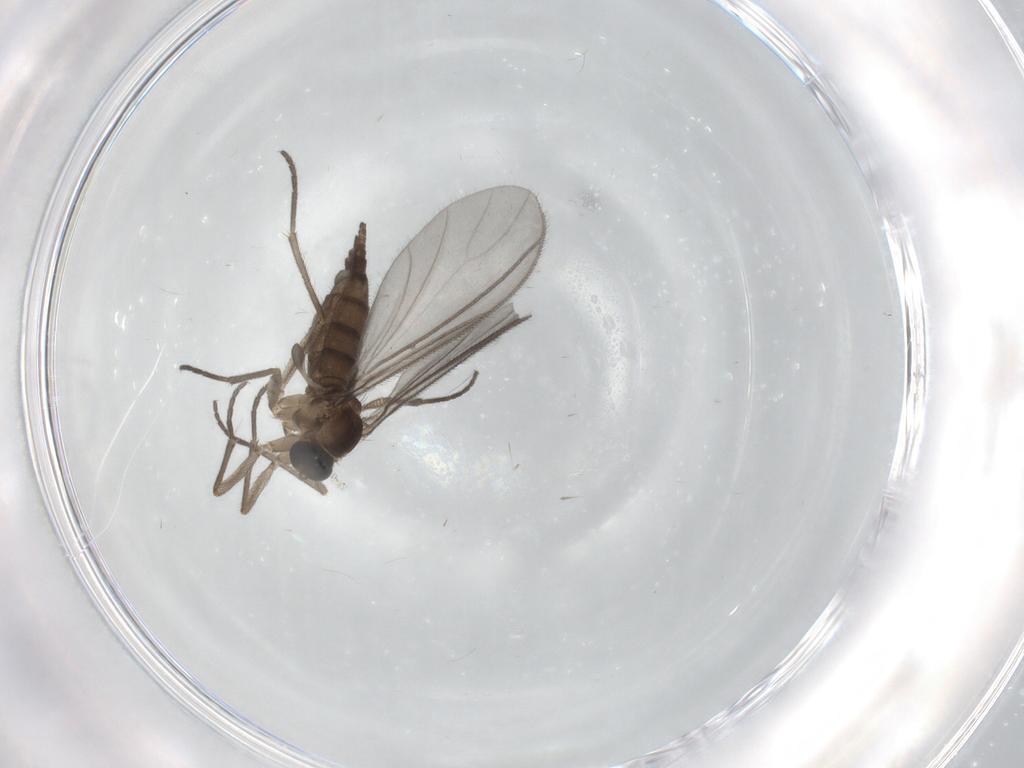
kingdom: Animalia
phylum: Arthropoda
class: Insecta
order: Diptera
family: Sciaridae
